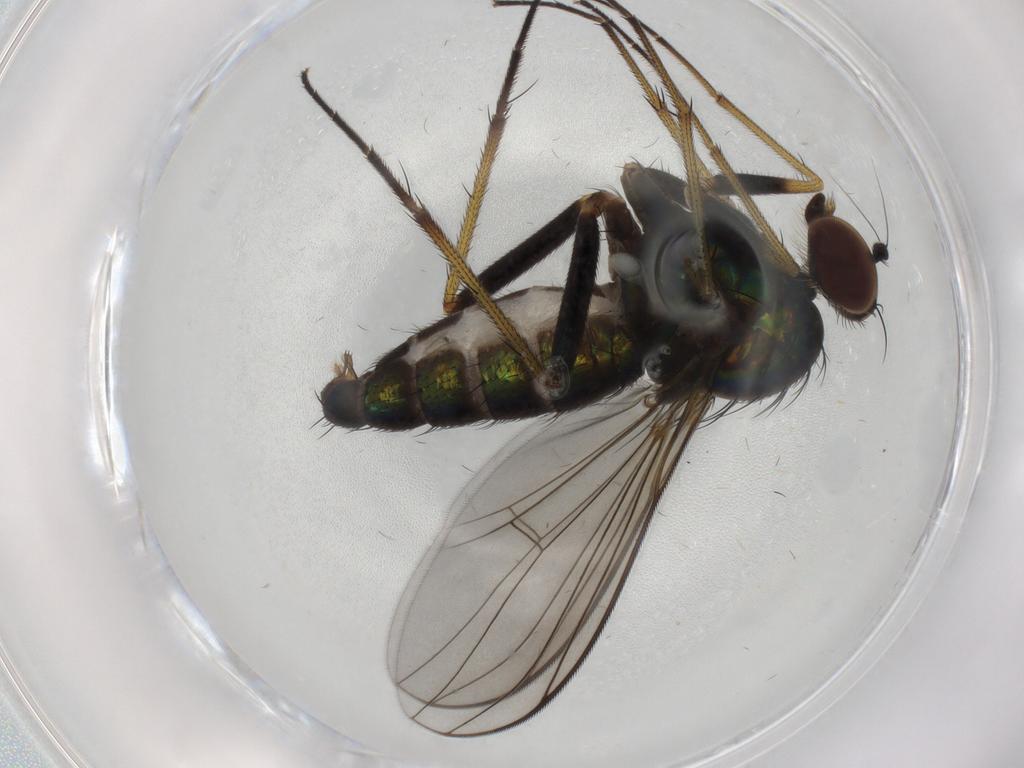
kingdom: Animalia
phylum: Arthropoda
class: Insecta
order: Diptera
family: Dolichopodidae
